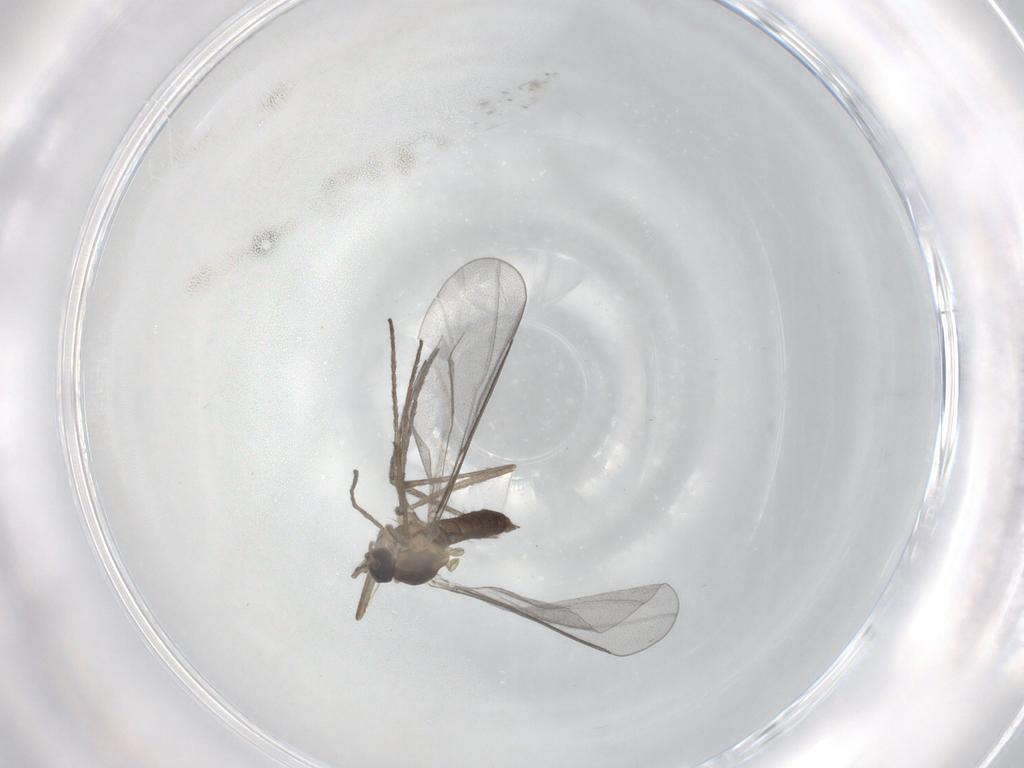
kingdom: Animalia
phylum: Arthropoda
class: Insecta
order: Diptera
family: Cecidomyiidae
